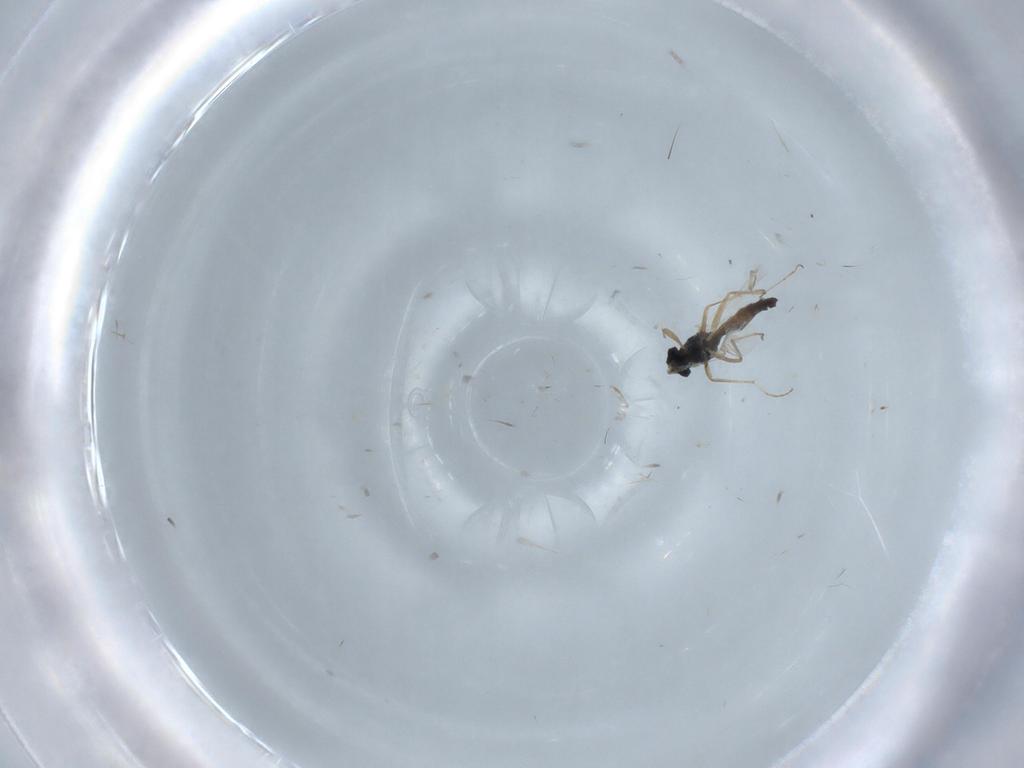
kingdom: Animalia
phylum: Arthropoda
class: Insecta
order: Diptera
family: Chironomidae
